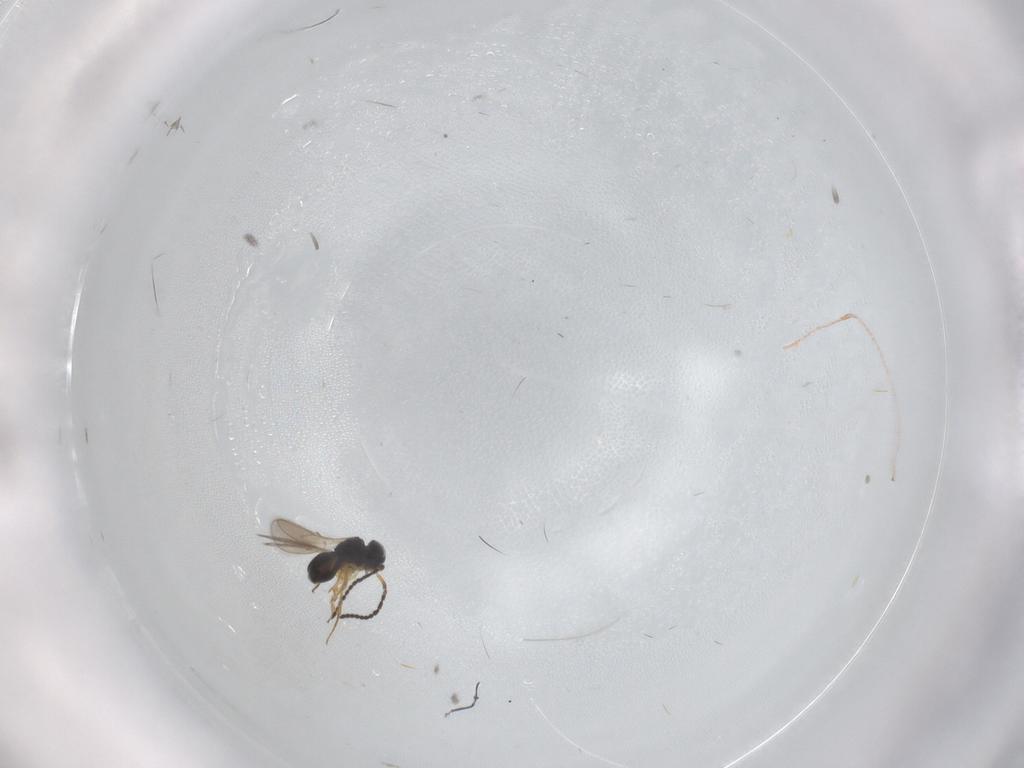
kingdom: Animalia
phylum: Arthropoda
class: Insecta
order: Hymenoptera
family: Scelionidae
